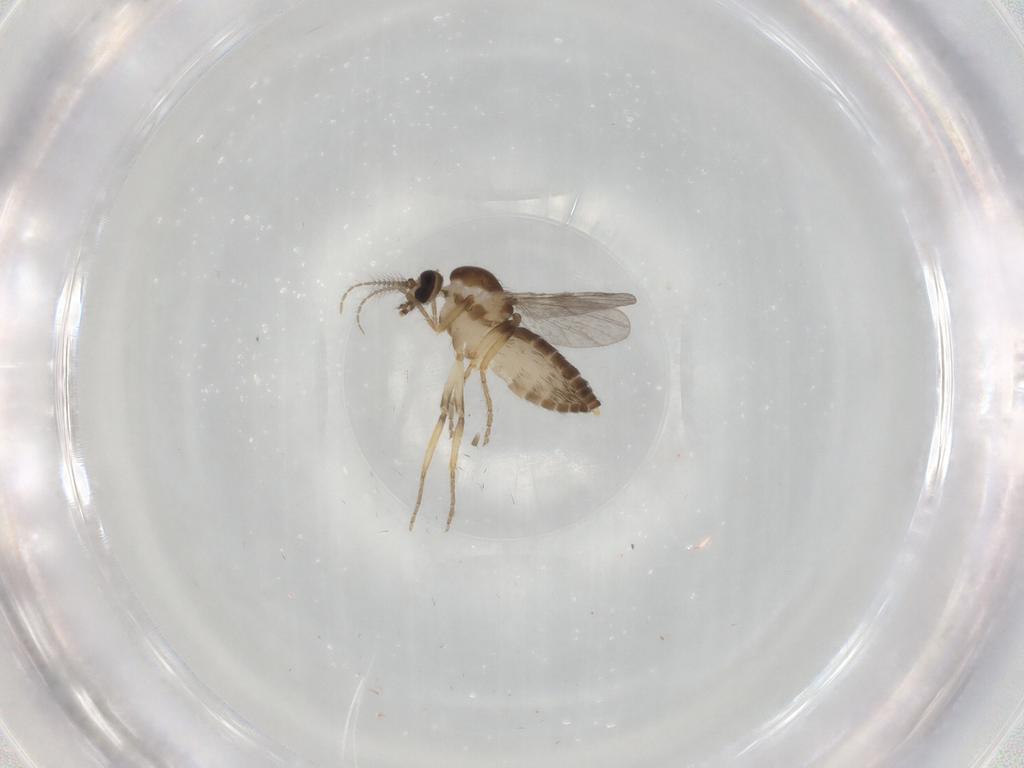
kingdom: Animalia
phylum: Arthropoda
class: Insecta
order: Diptera
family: Ceratopogonidae
